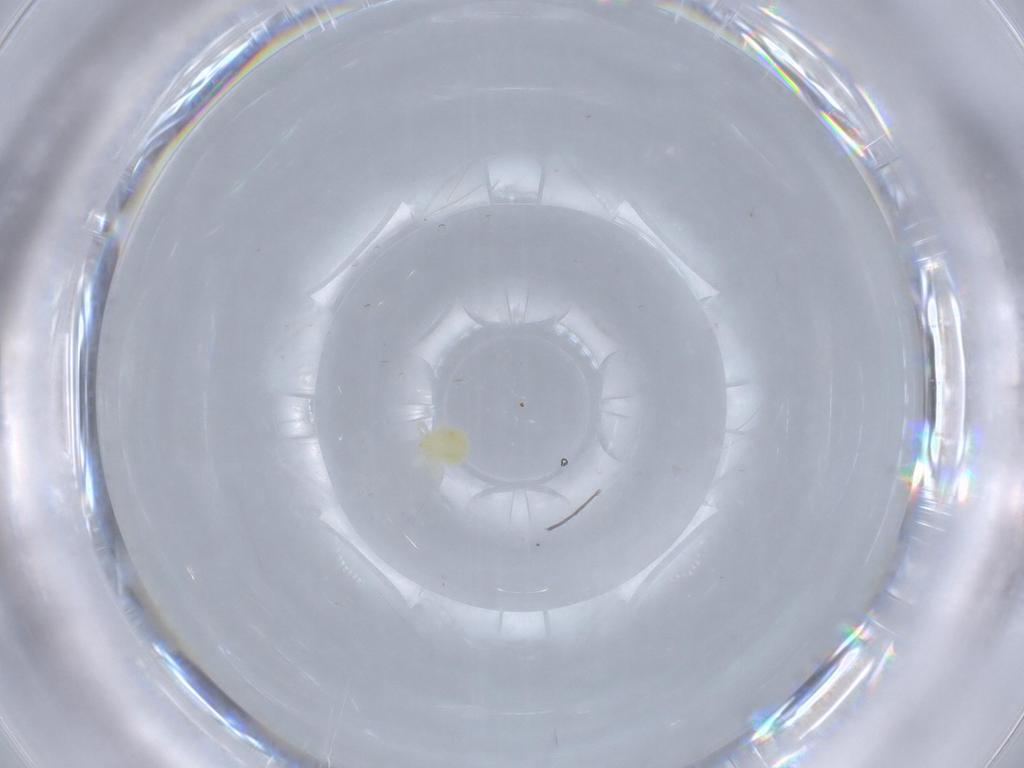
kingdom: Animalia
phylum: Arthropoda
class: Arachnida
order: Trombidiformes
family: Anystidae
